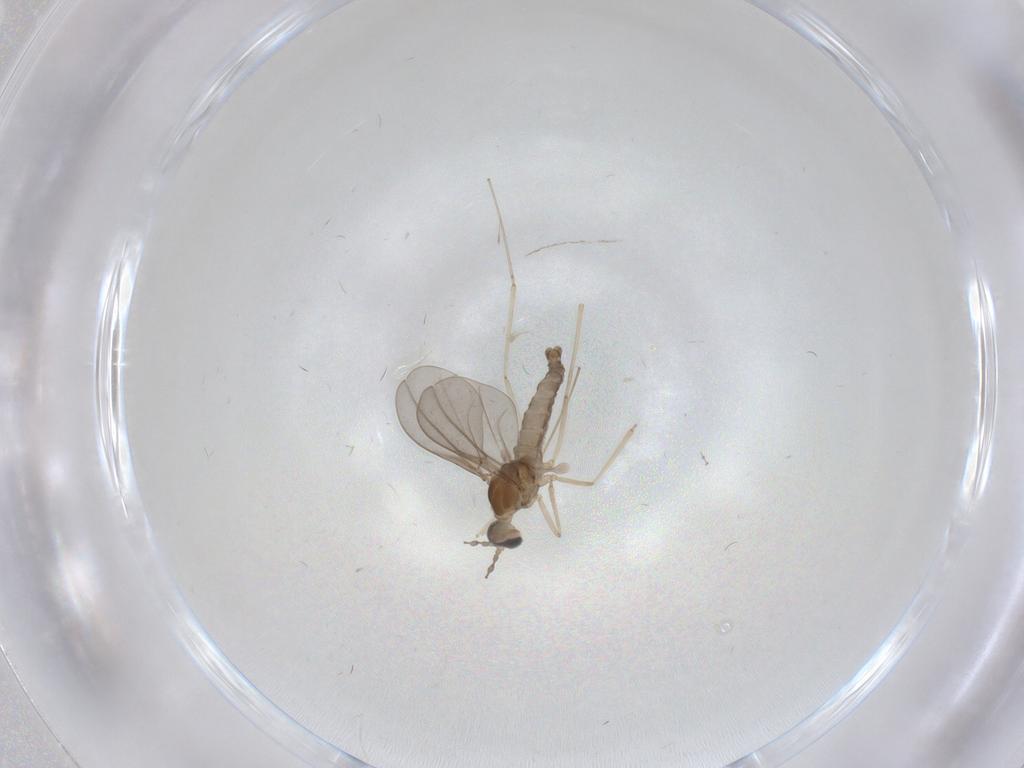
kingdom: Animalia
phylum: Arthropoda
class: Insecta
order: Diptera
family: Cecidomyiidae
